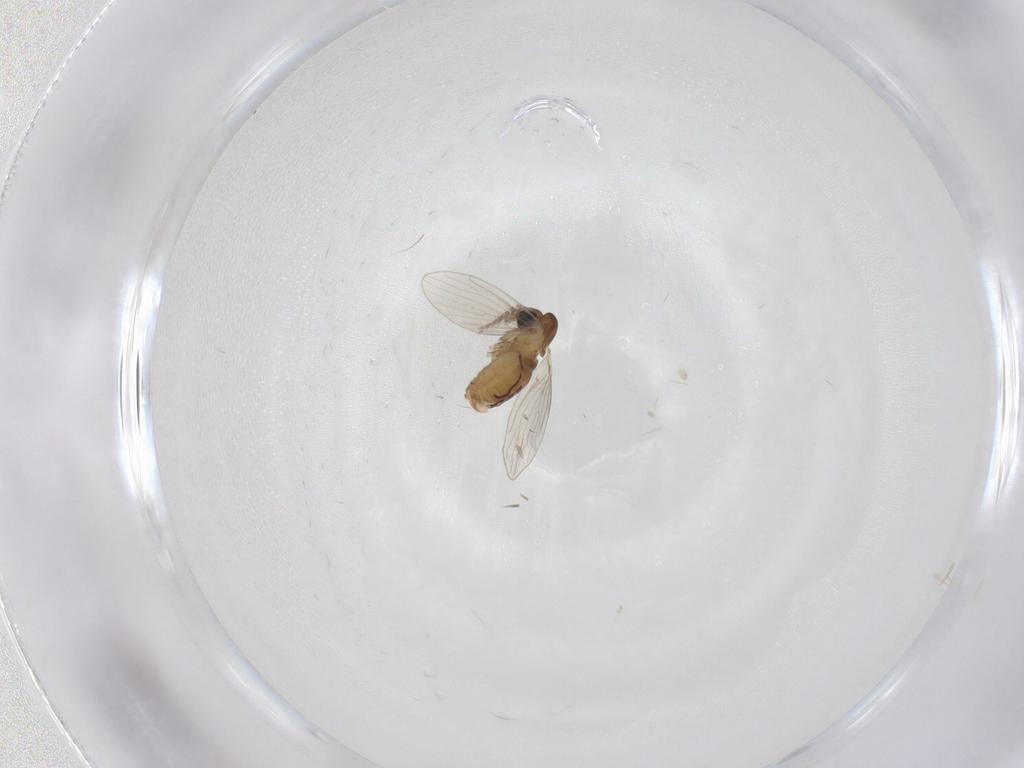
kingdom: Animalia
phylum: Arthropoda
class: Insecta
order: Diptera
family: Psychodidae
